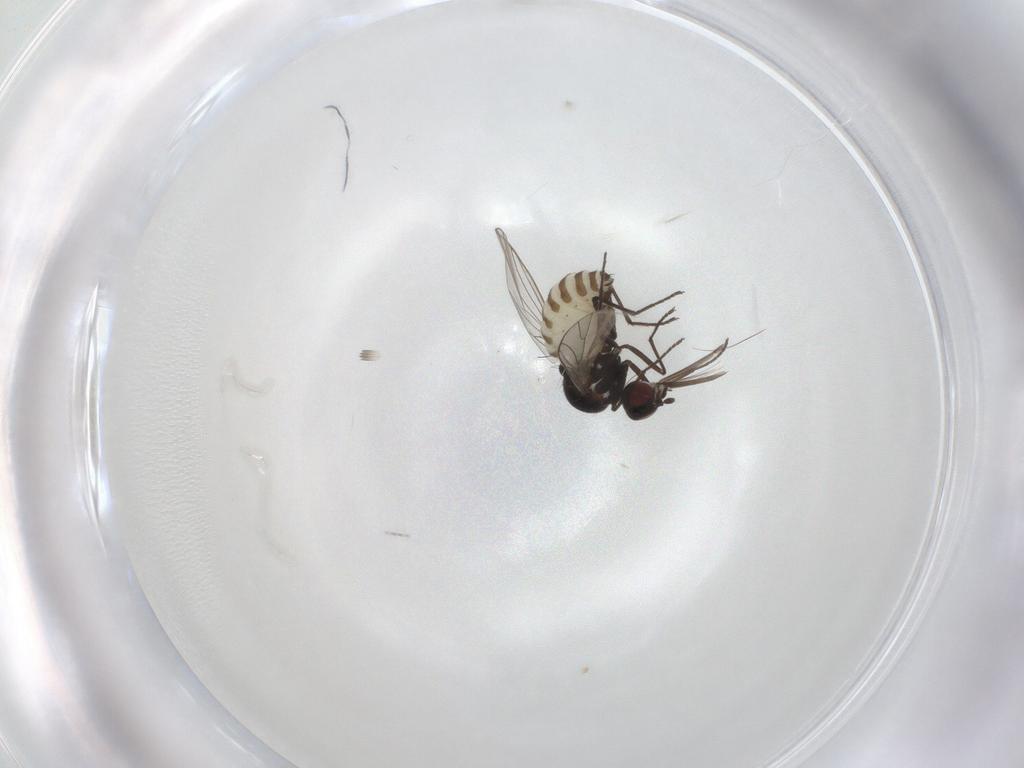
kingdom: Animalia
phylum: Arthropoda
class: Insecta
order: Diptera
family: Bombyliidae
